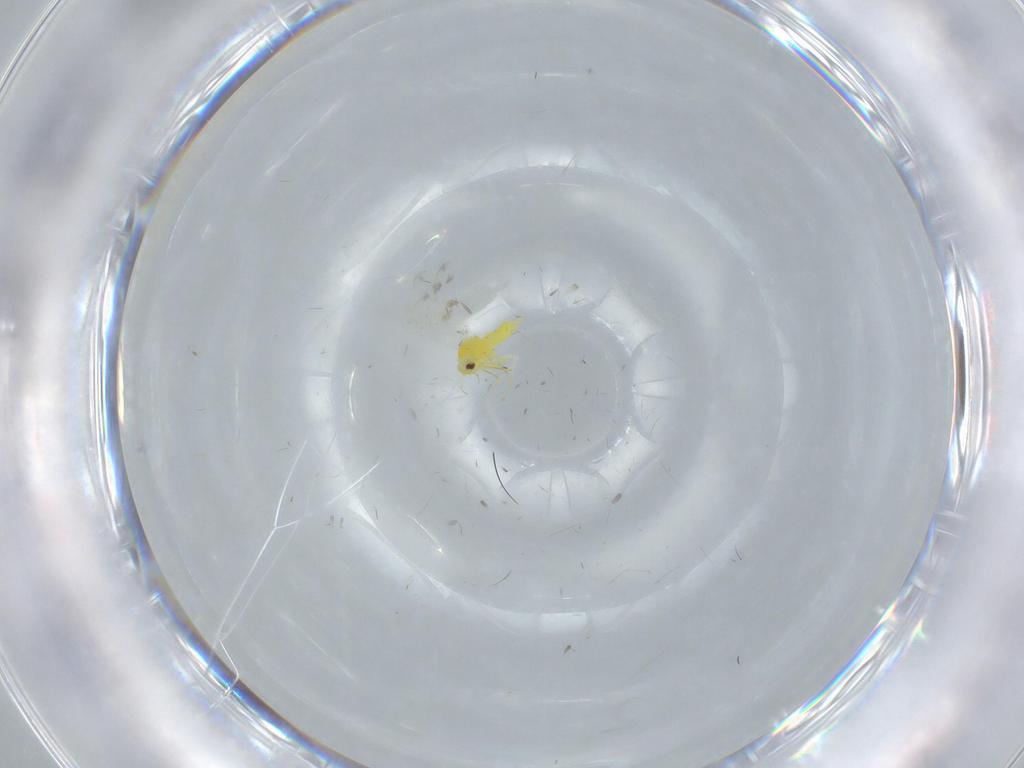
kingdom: Animalia
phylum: Arthropoda
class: Insecta
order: Hemiptera
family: Aleyrodidae
